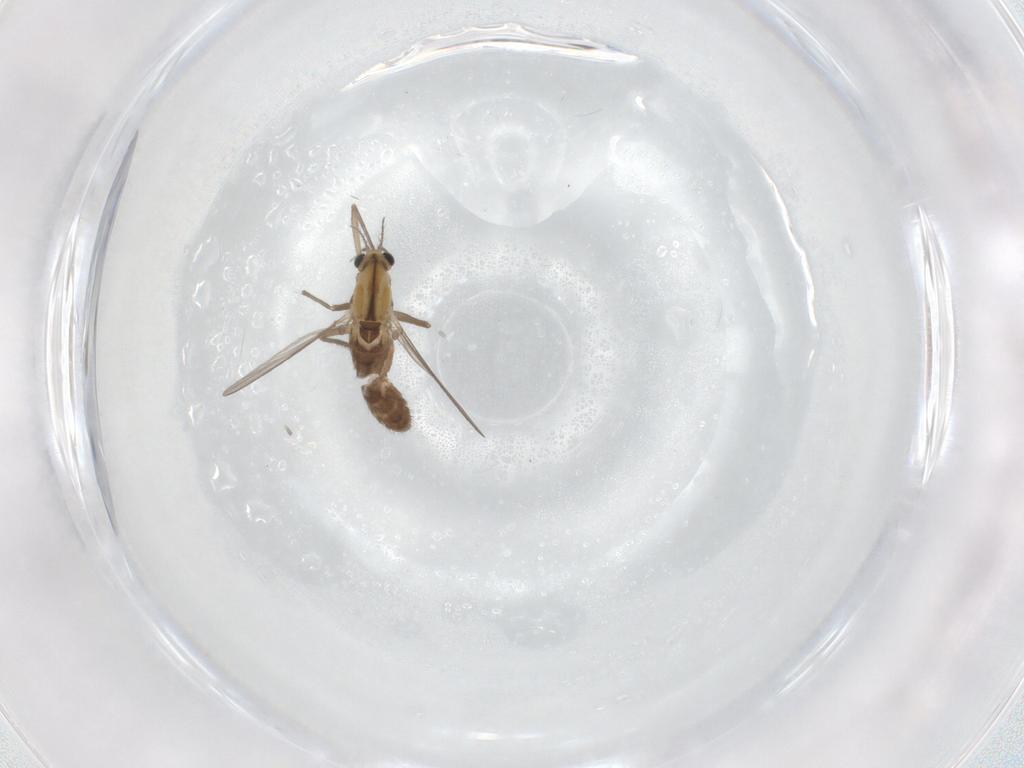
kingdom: Animalia
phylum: Arthropoda
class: Insecta
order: Diptera
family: Chironomidae
